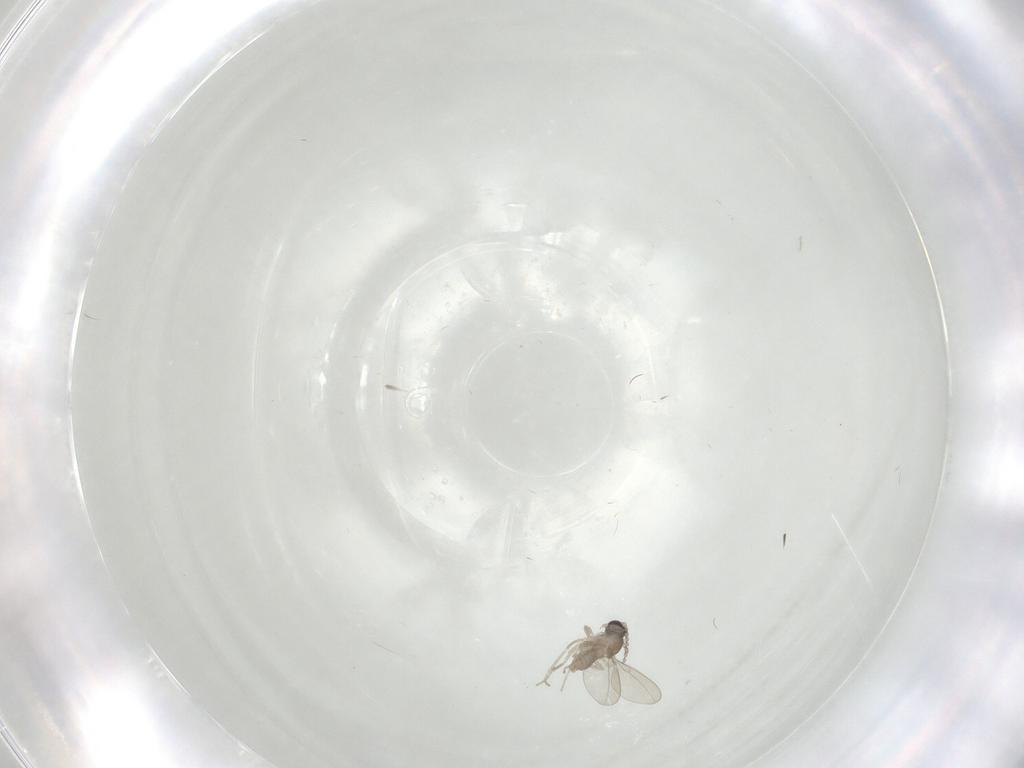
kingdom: Animalia
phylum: Arthropoda
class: Insecta
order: Diptera
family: Cecidomyiidae
